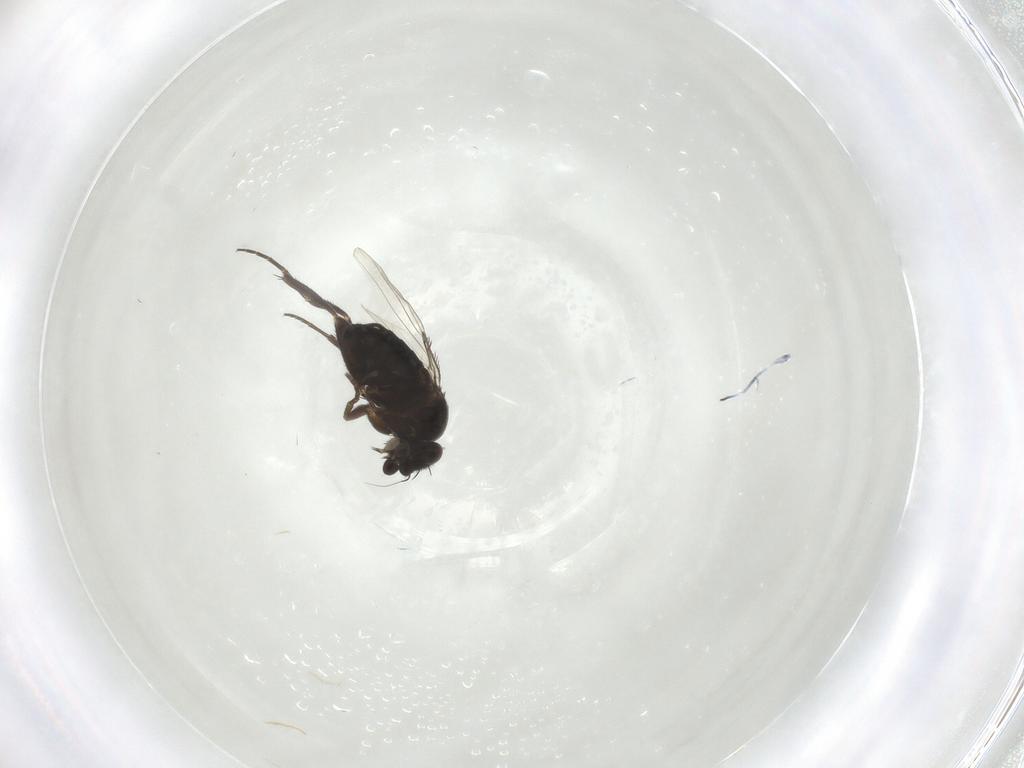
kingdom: Animalia
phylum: Arthropoda
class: Insecta
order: Diptera
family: Phoridae
